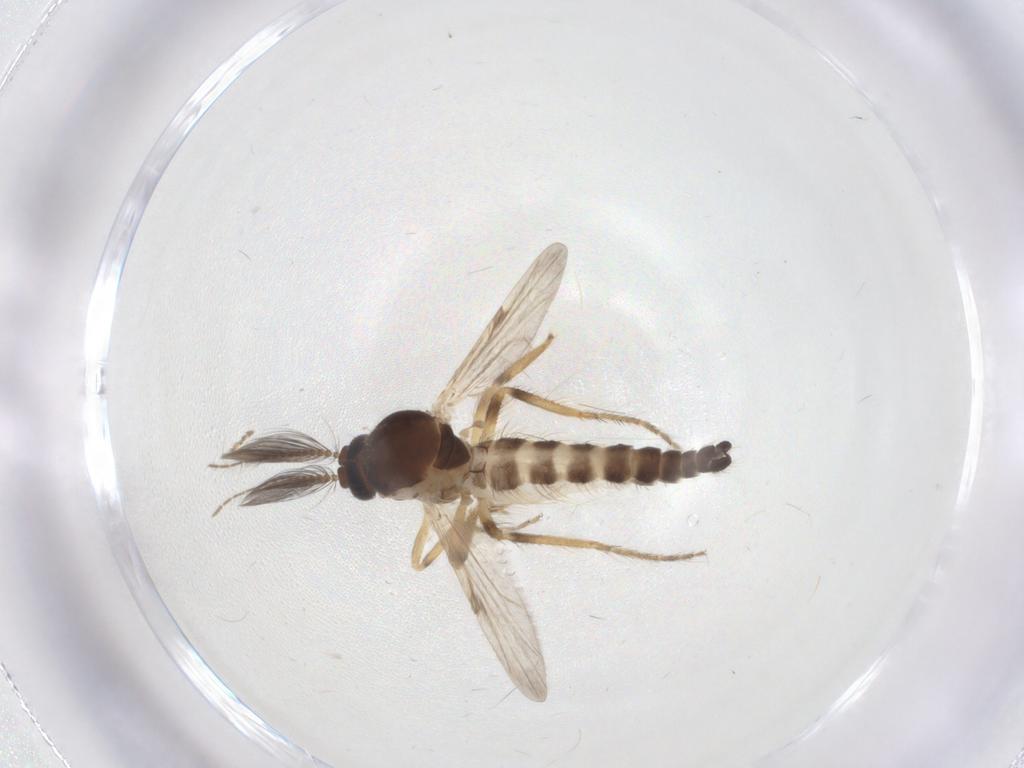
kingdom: Animalia
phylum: Arthropoda
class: Insecta
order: Diptera
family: Ceratopogonidae
